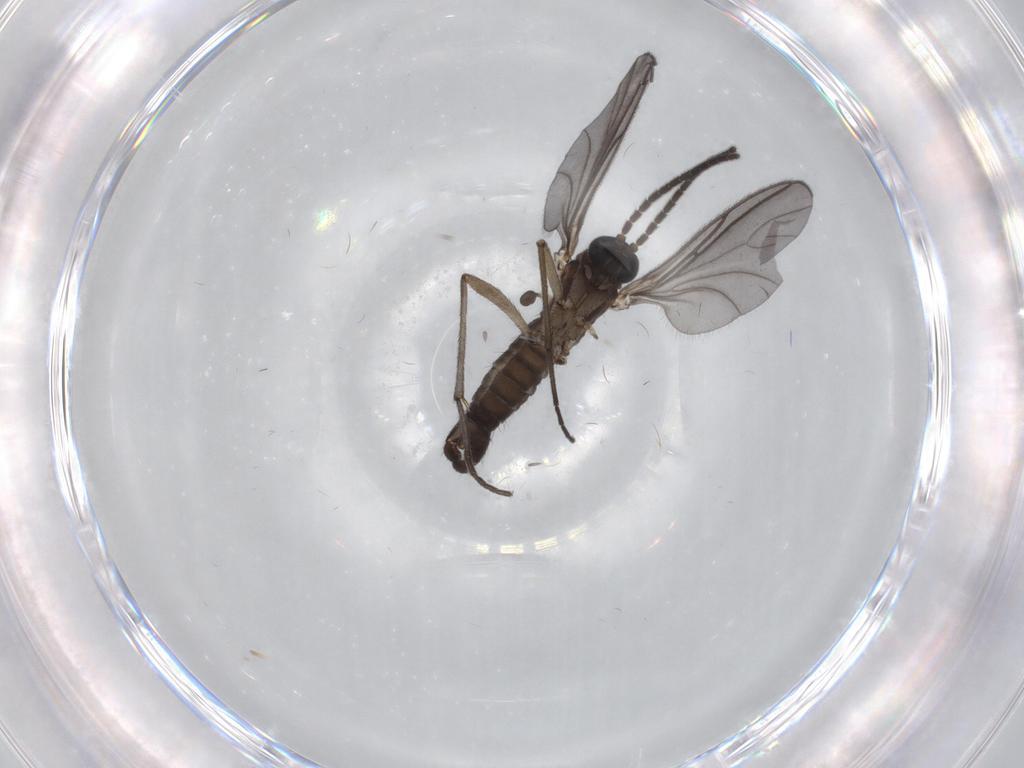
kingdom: Animalia
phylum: Arthropoda
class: Insecta
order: Diptera
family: Sciaridae
